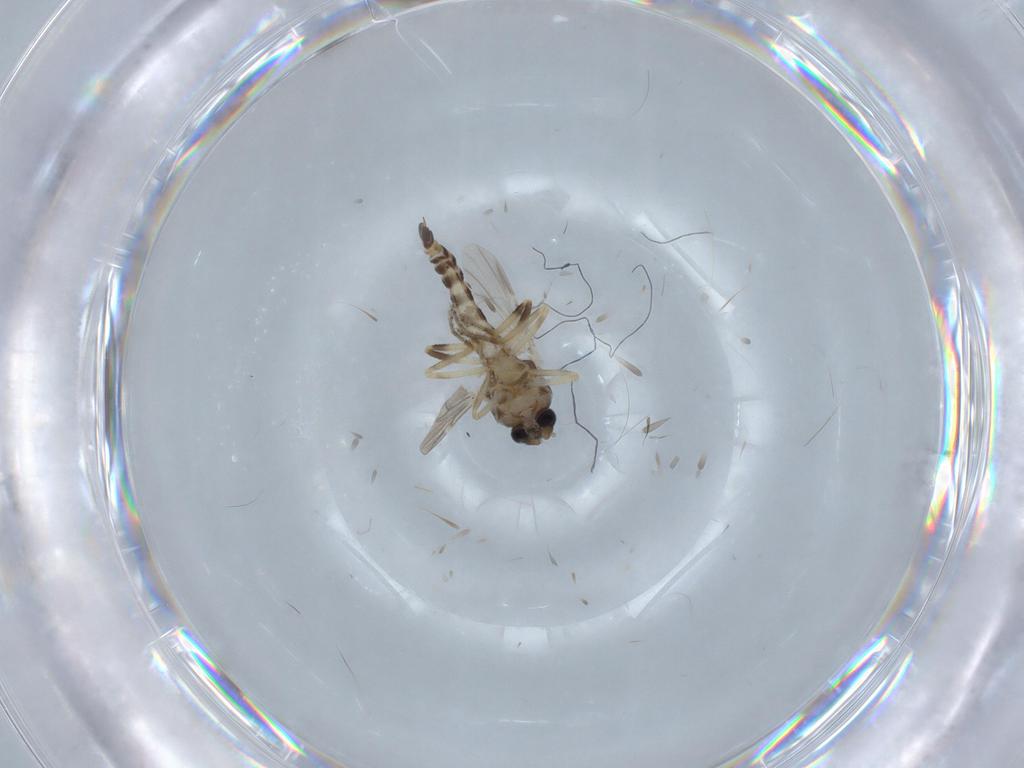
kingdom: Animalia
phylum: Arthropoda
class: Insecta
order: Diptera
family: Ceratopogonidae
